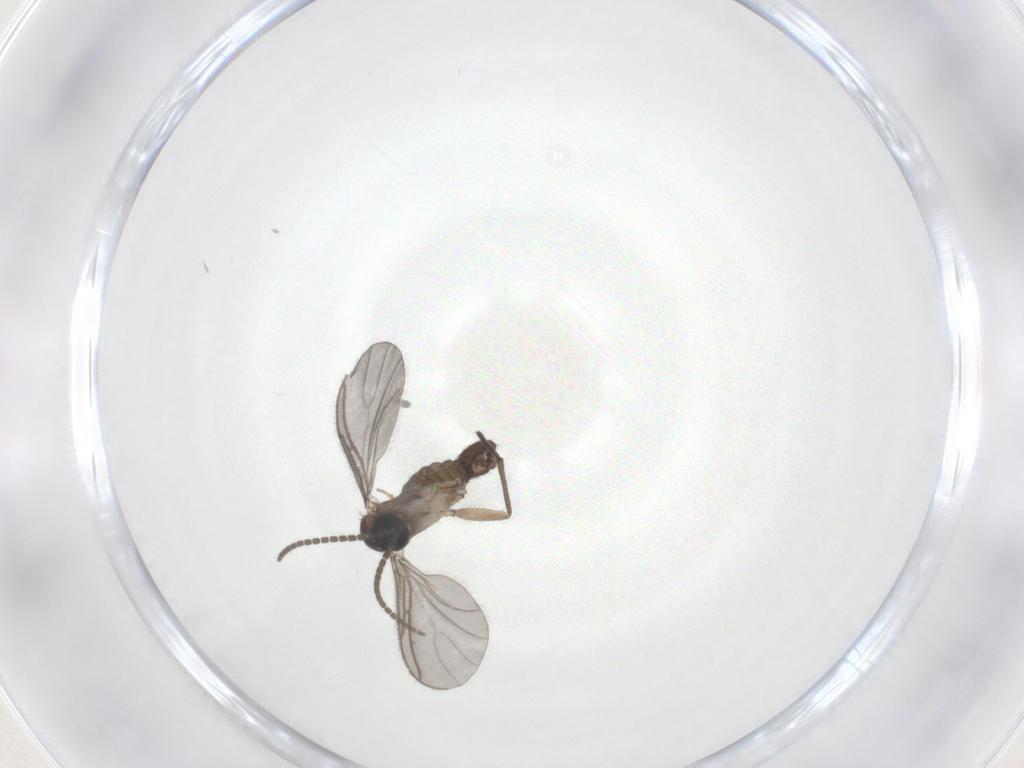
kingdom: Animalia
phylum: Arthropoda
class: Insecta
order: Diptera
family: Sciaridae
